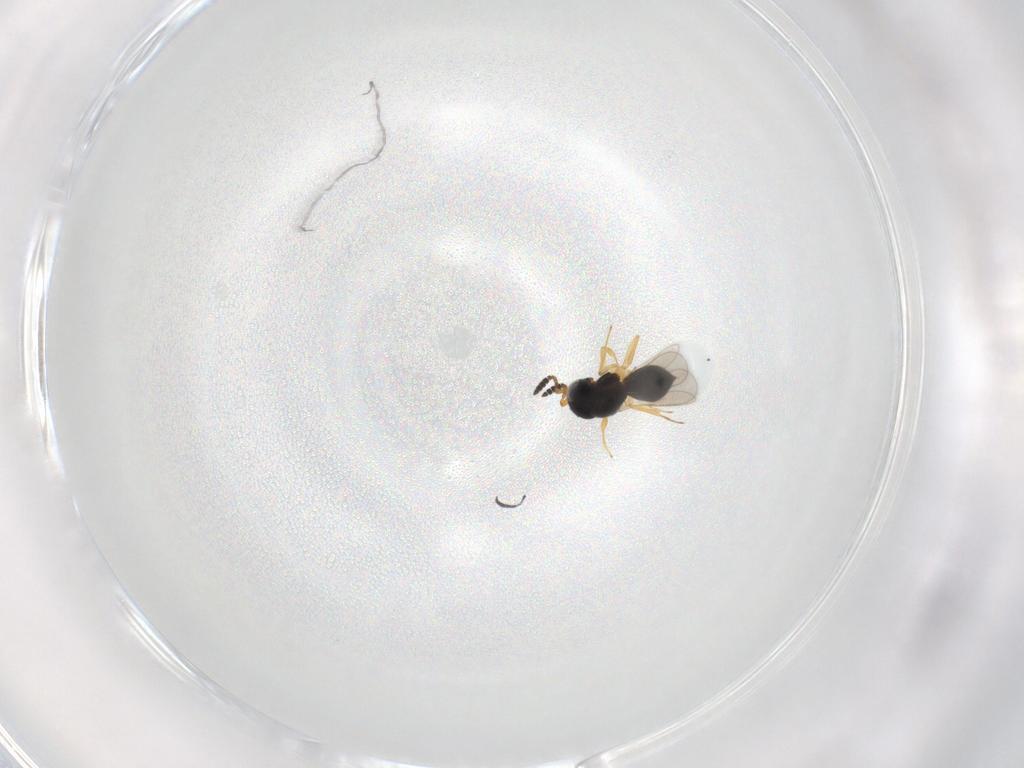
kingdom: Animalia
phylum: Arthropoda
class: Insecta
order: Hymenoptera
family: Scelionidae
